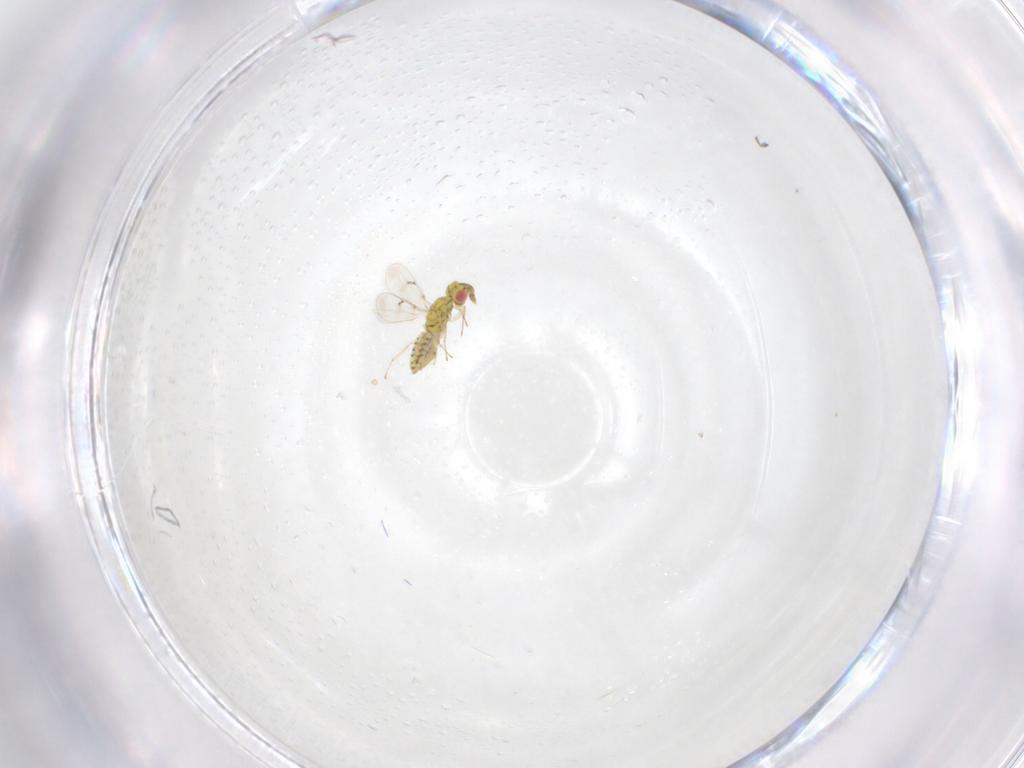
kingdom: Animalia
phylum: Arthropoda
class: Insecta
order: Hymenoptera
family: Eulophidae
